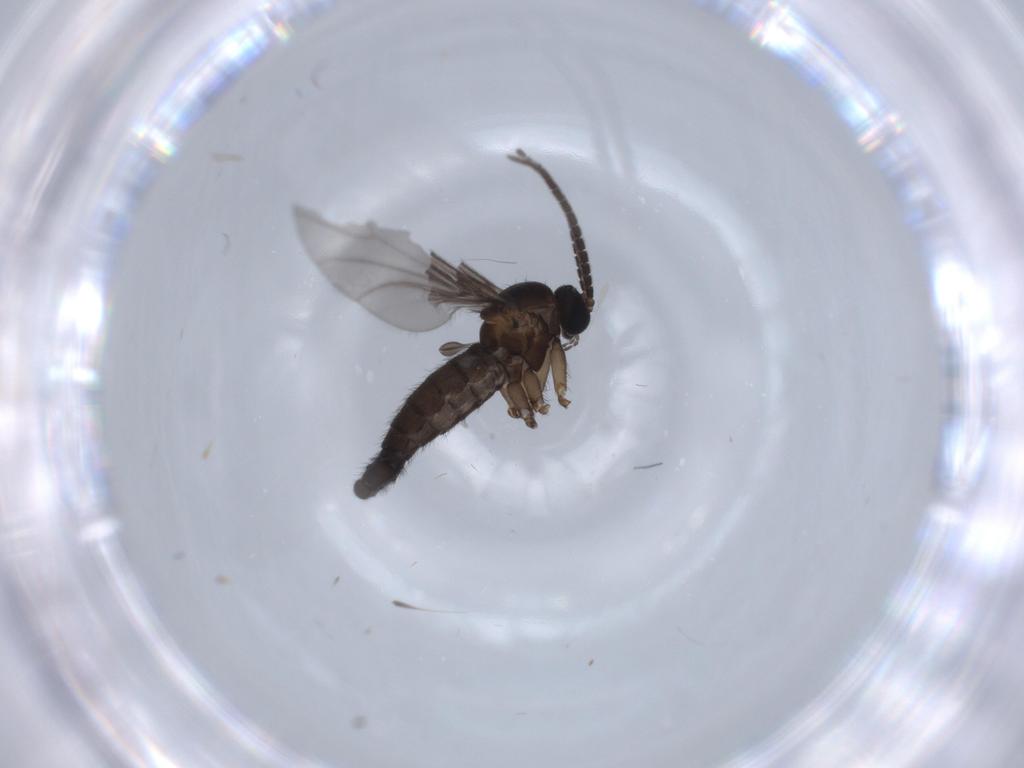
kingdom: Animalia
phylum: Arthropoda
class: Insecta
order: Diptera
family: Sciaridae
